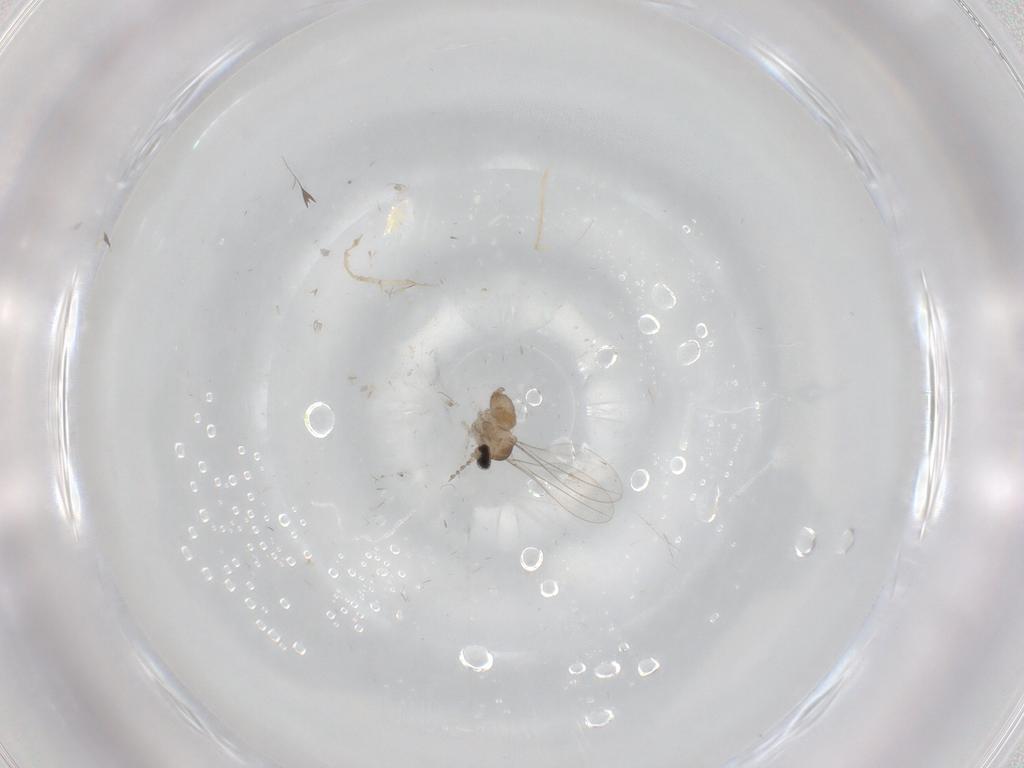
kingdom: Animalia
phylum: Arthropoda
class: Insecta
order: Diptera
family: Cecidomyiidae
